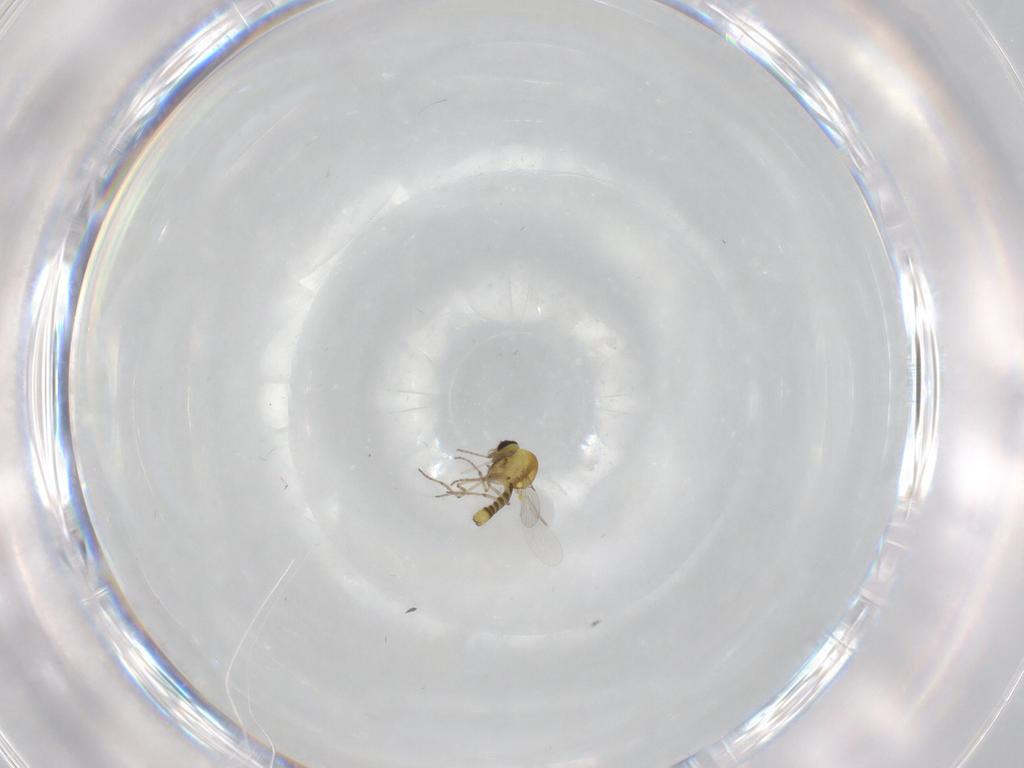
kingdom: Animalia
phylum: Arthropoda
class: Insecta
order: Diptera
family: Ceratopogonidae
